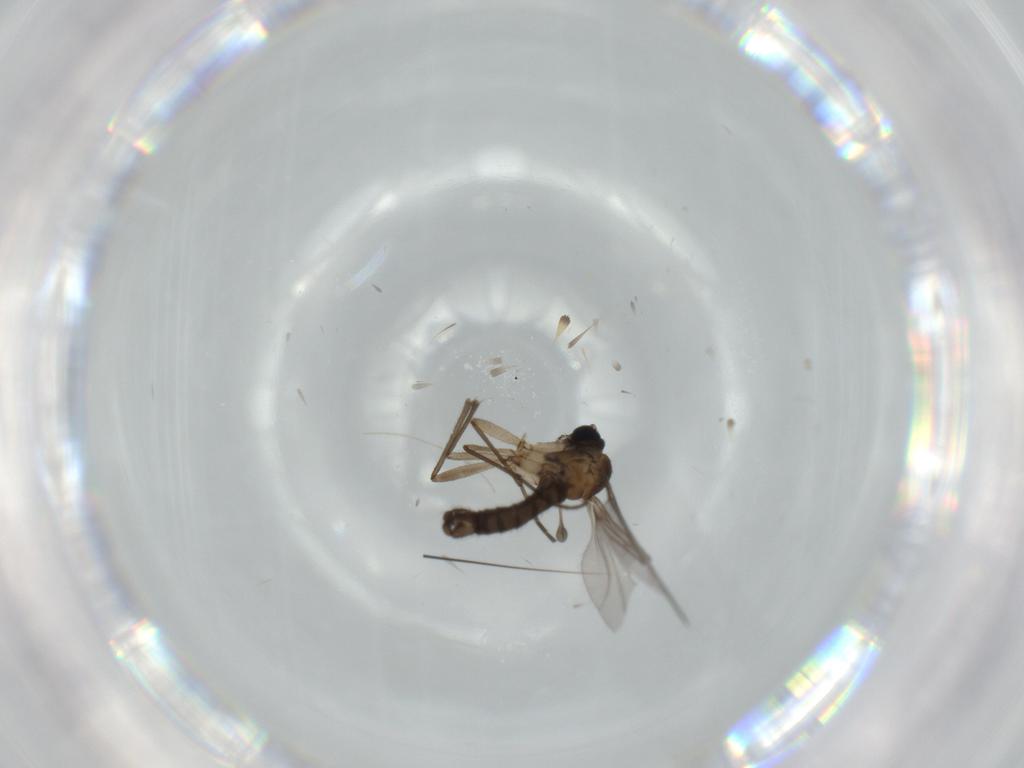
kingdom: Animalia
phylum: Arthropoda
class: Insecta
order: Diptera
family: Sciaridae
